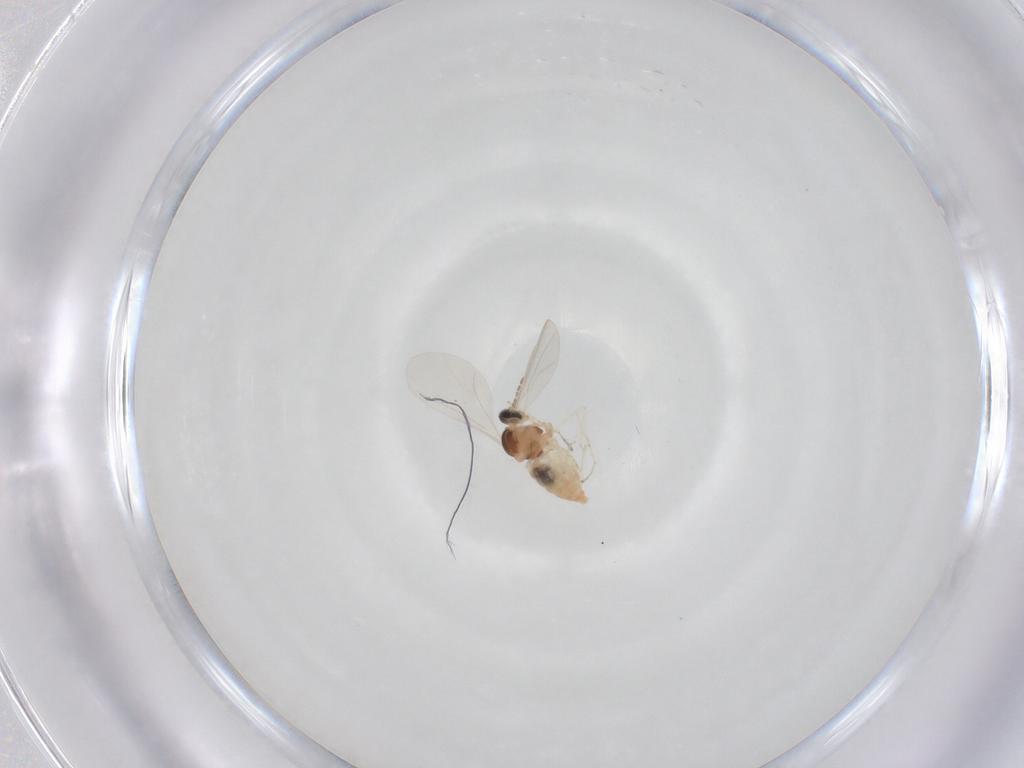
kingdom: Animalia
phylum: Arthropoda
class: Insecta
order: Diptera
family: Cecidomyiidae
